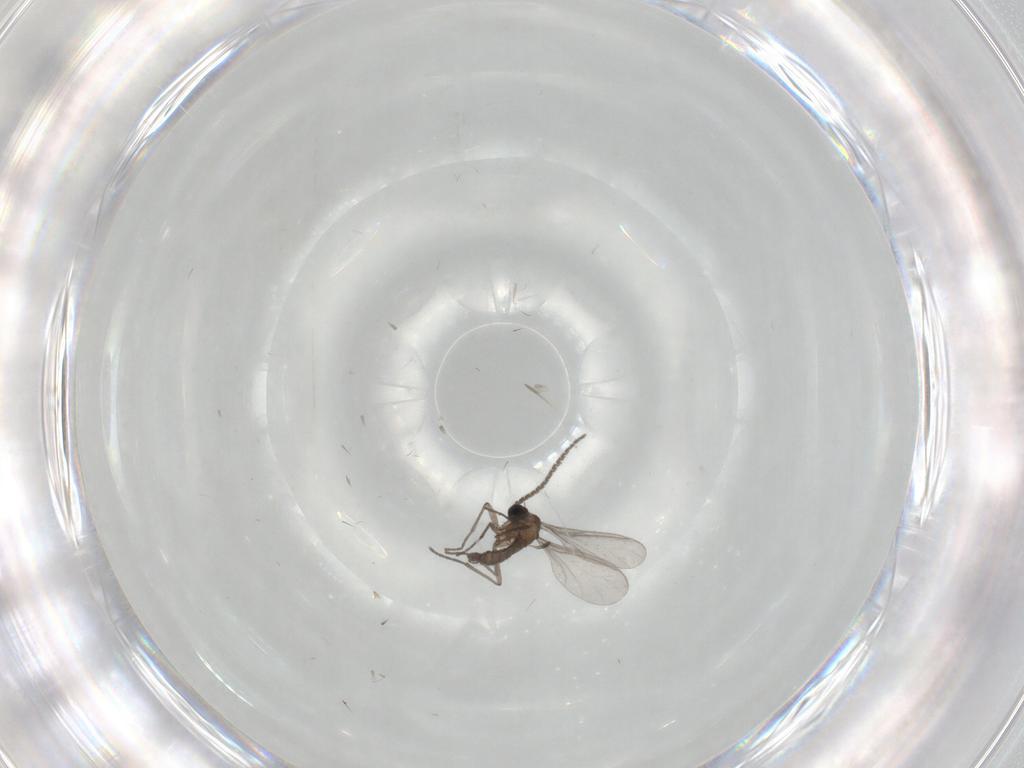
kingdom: Animalia
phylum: Arthropoda
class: Insecta
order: Diptera
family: Sciaridae
